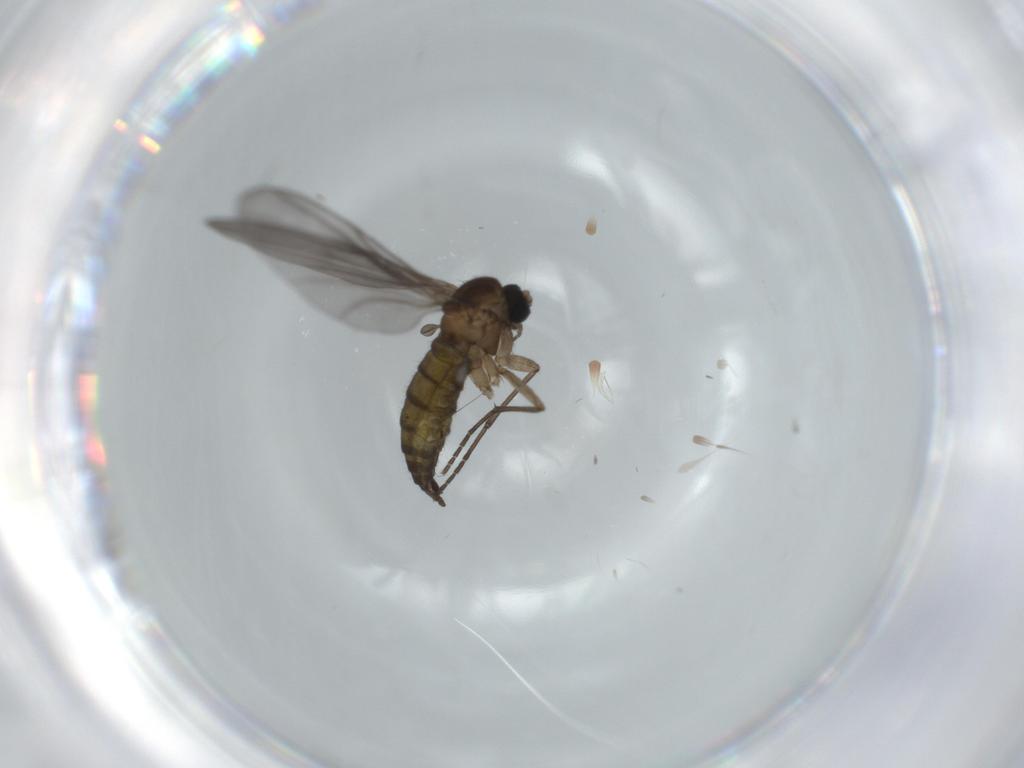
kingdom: Animalia
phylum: Arthropoda
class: Insecta
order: Diptera
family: Sciaridae
